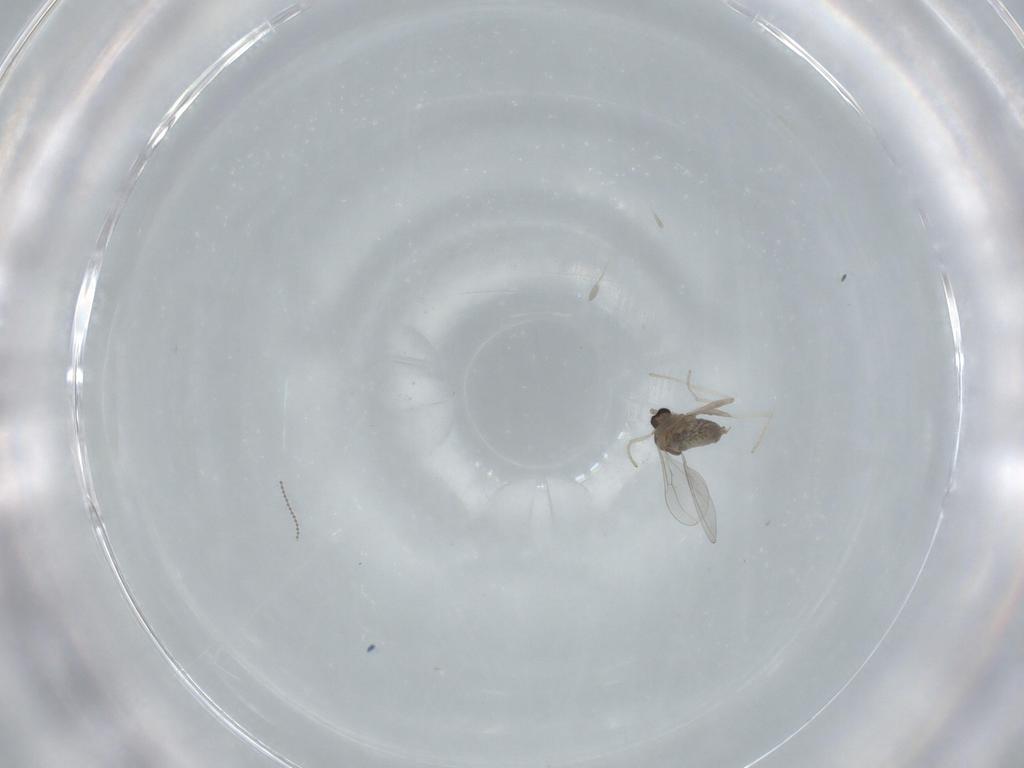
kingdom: Animalia
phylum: Arthropoda
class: Insecta
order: Diptera
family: Cecidomyiidae
